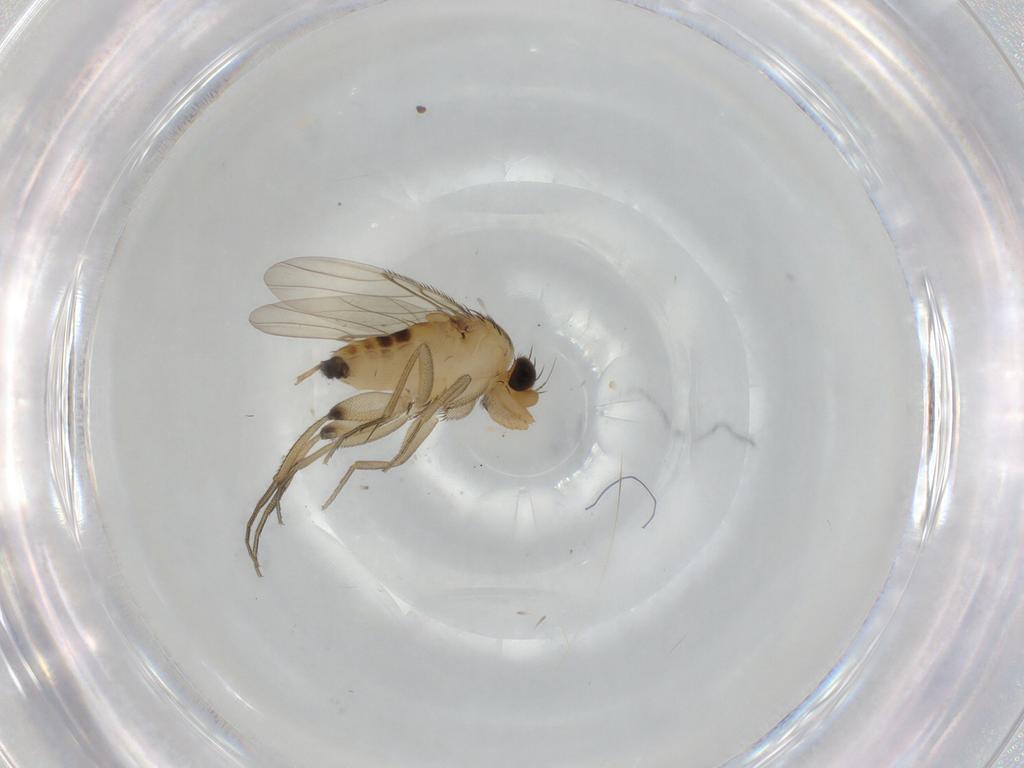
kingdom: Animalia
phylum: Arthropoda
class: Insecta
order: Diptera
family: Phoridae
